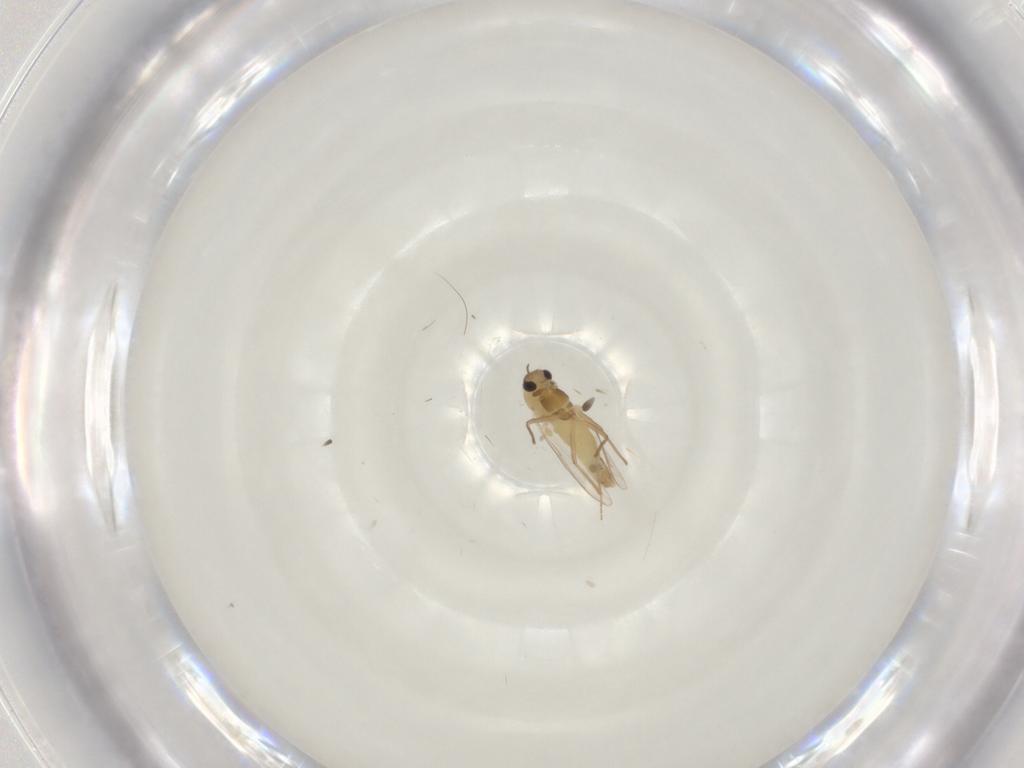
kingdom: Animalia
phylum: Arthropoda
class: Insecta
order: Diptera
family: Chironomidae
